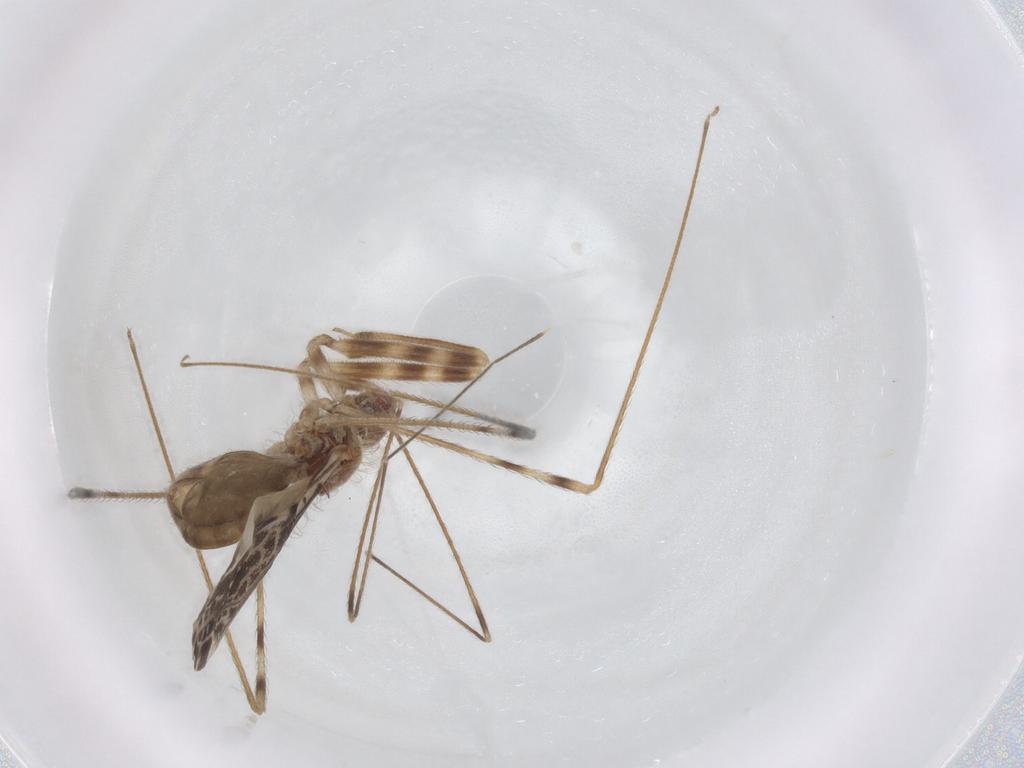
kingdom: Animalia
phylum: Arthropoda
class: Insecta
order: Hemiptera
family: Reduviidae
